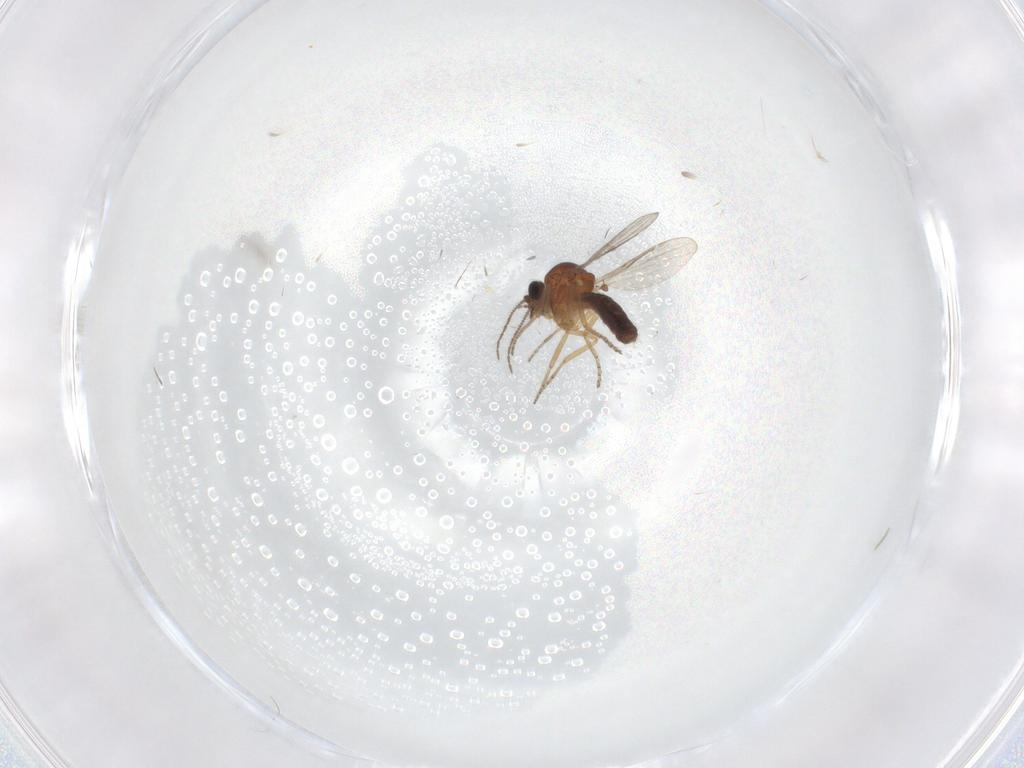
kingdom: Animalia
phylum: Arthropoda
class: Insecta
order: Diptera
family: Ceratopogonidae
